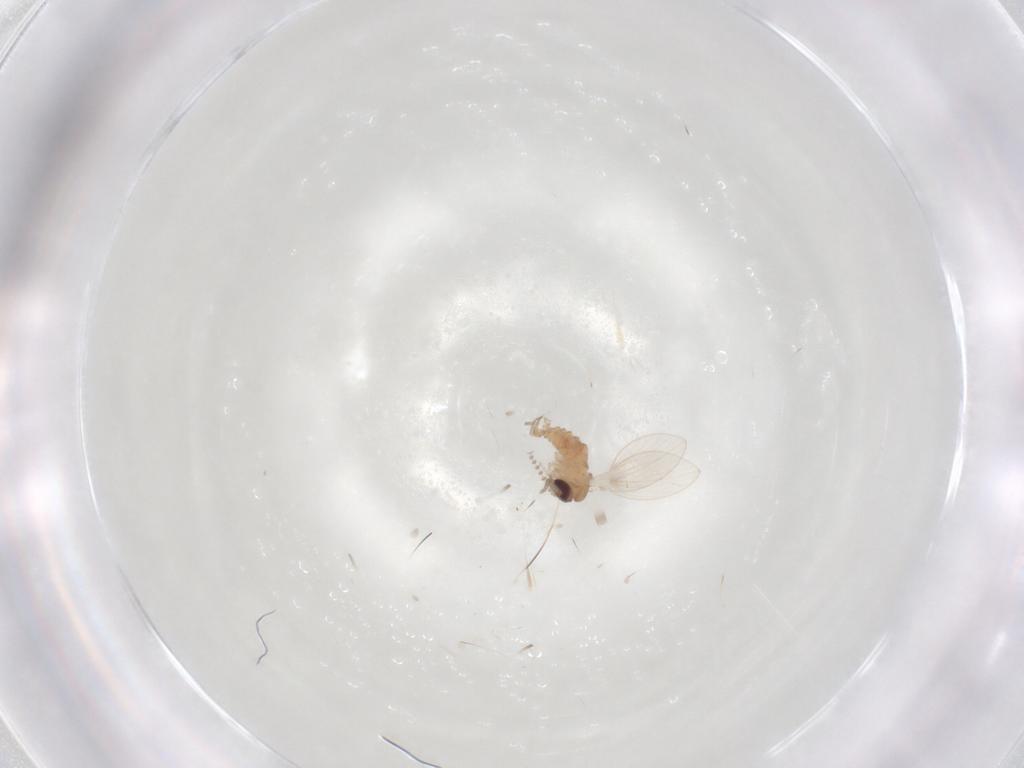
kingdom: Animalia
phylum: Arthropoda
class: Insecta
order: Diptera
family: Psychodidae
